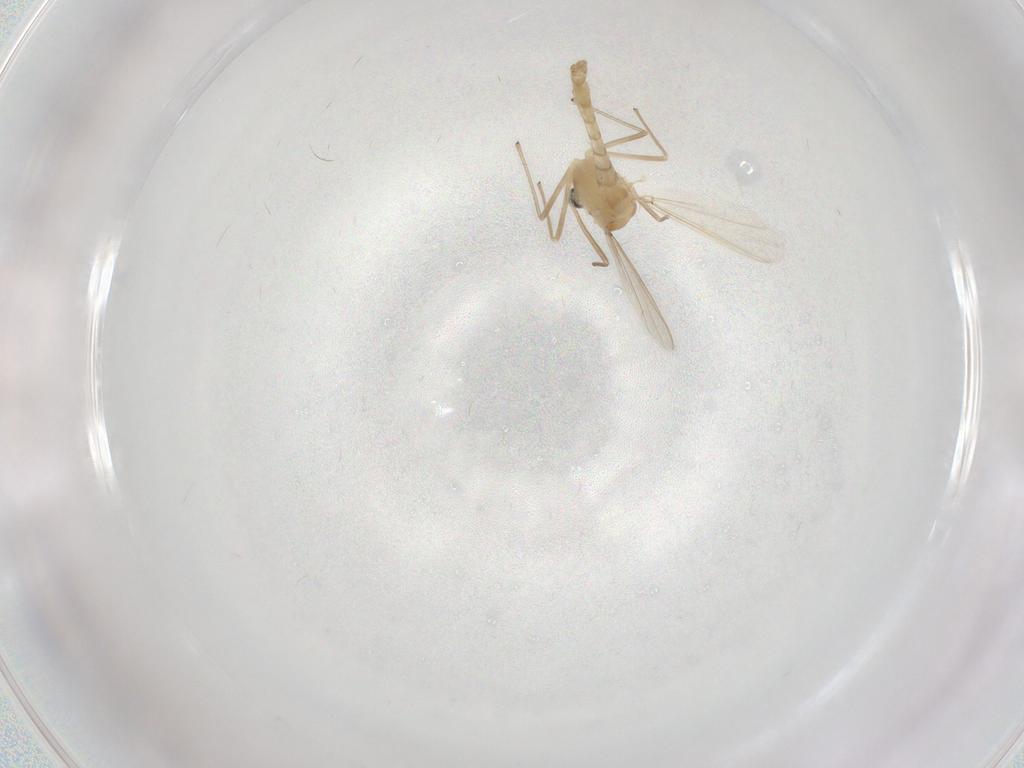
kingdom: Animalia
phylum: Arthropoda
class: Insecta
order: Diptera
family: Chironomidae
